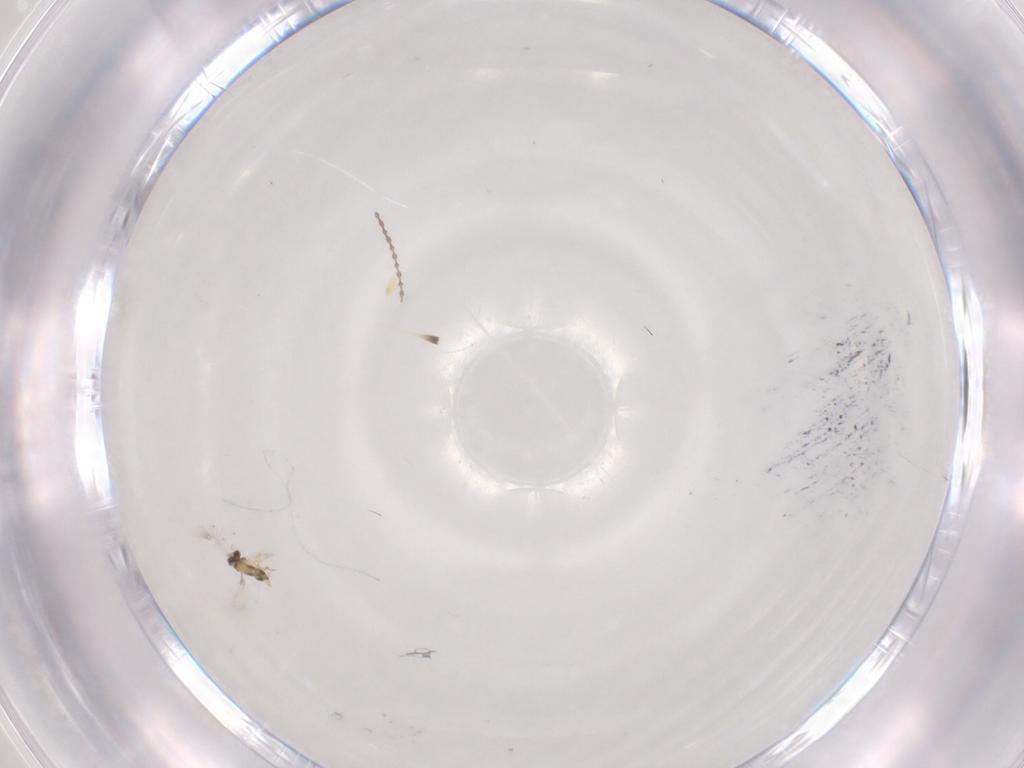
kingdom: Animalia
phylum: Arthropoda
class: Insecta
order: Hymenoptera
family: Mymaridae
